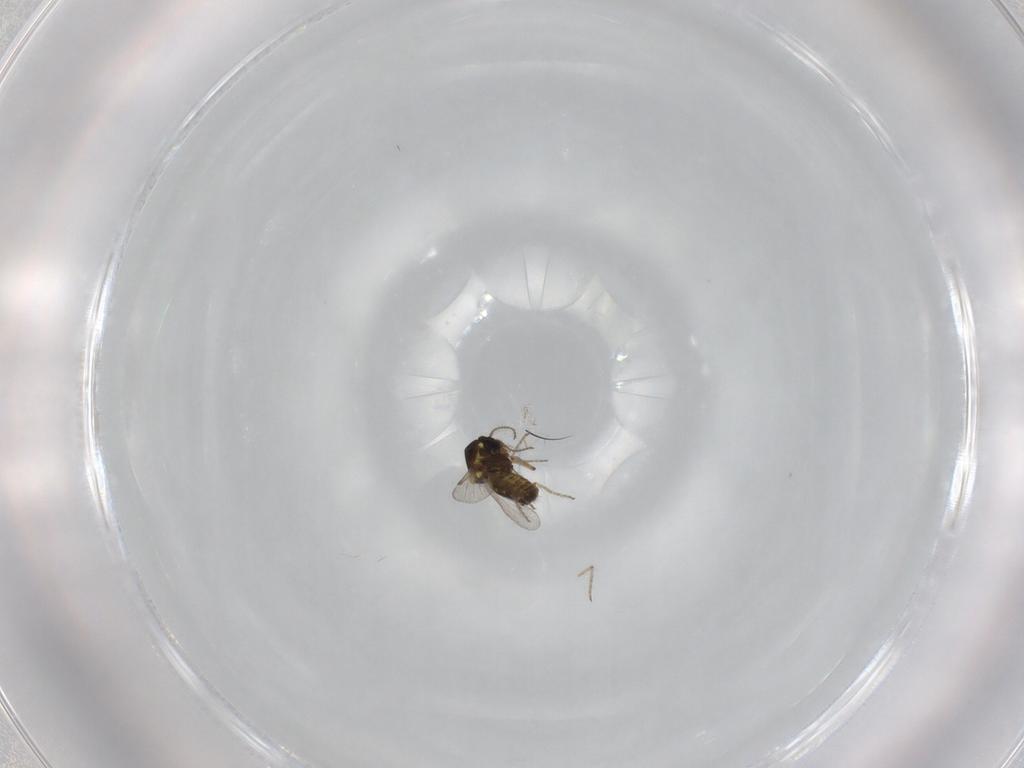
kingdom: Animalia
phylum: Arthropoda
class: Insecta
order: Diptera
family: Ceratopogonidae
